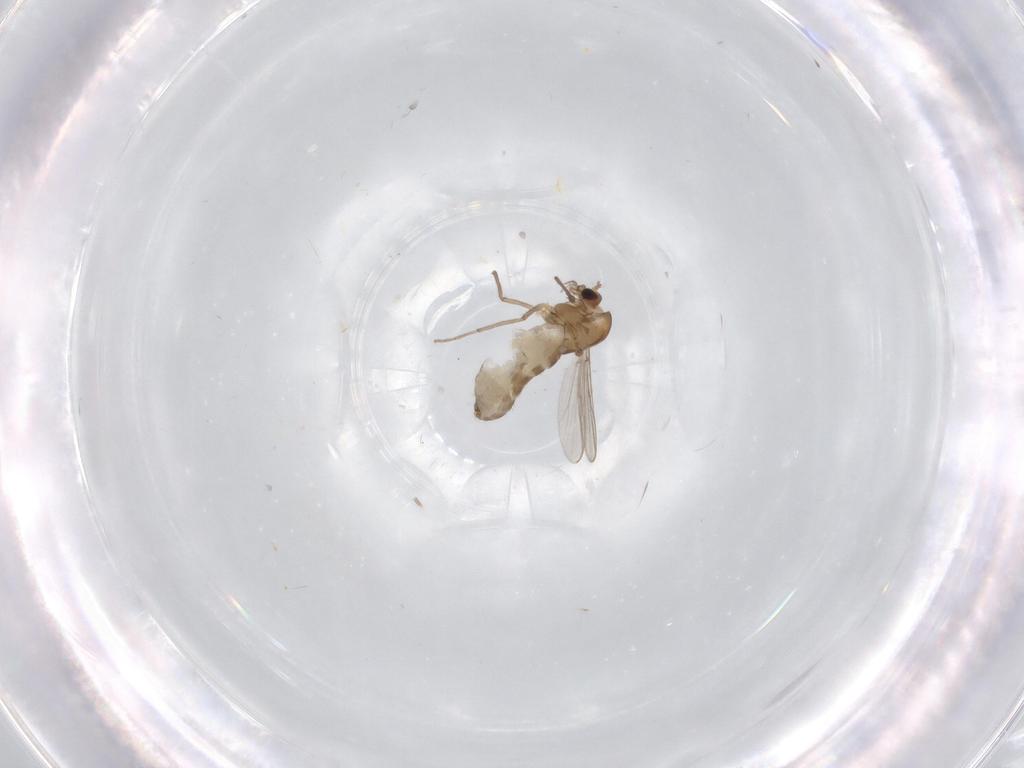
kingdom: Animalia
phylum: Arthropoda
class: Insecta
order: Diptera
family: Chironomidae
